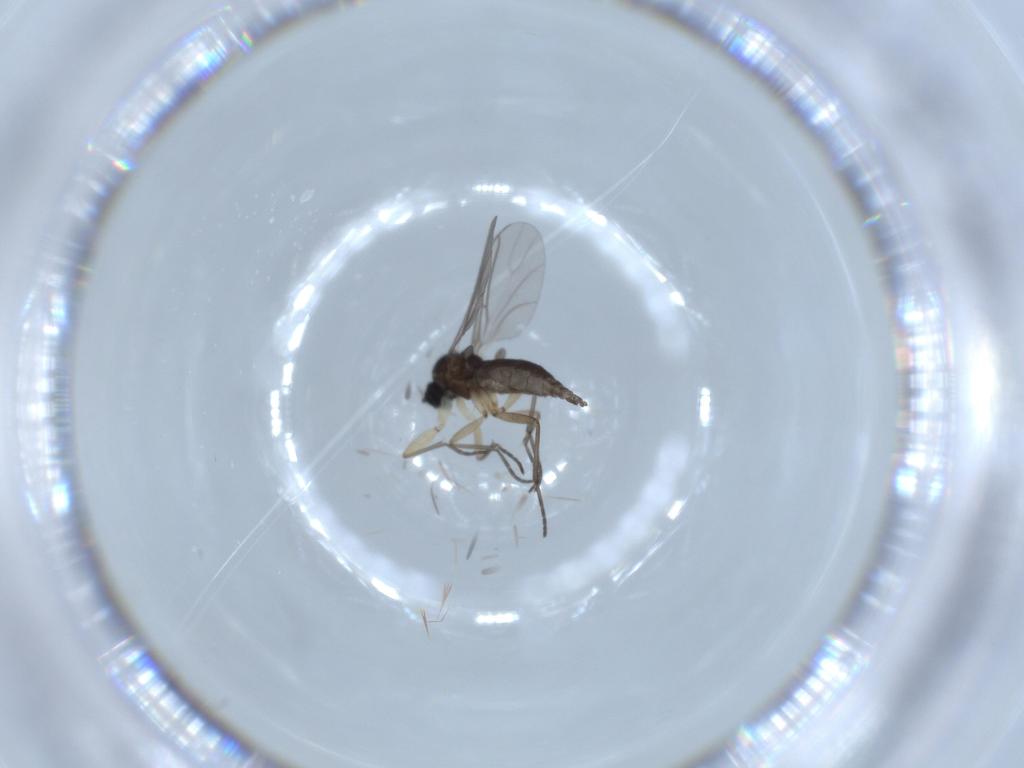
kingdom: Animalia
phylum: Arthropoda
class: Insecta
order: Diptera
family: Sciaridae
